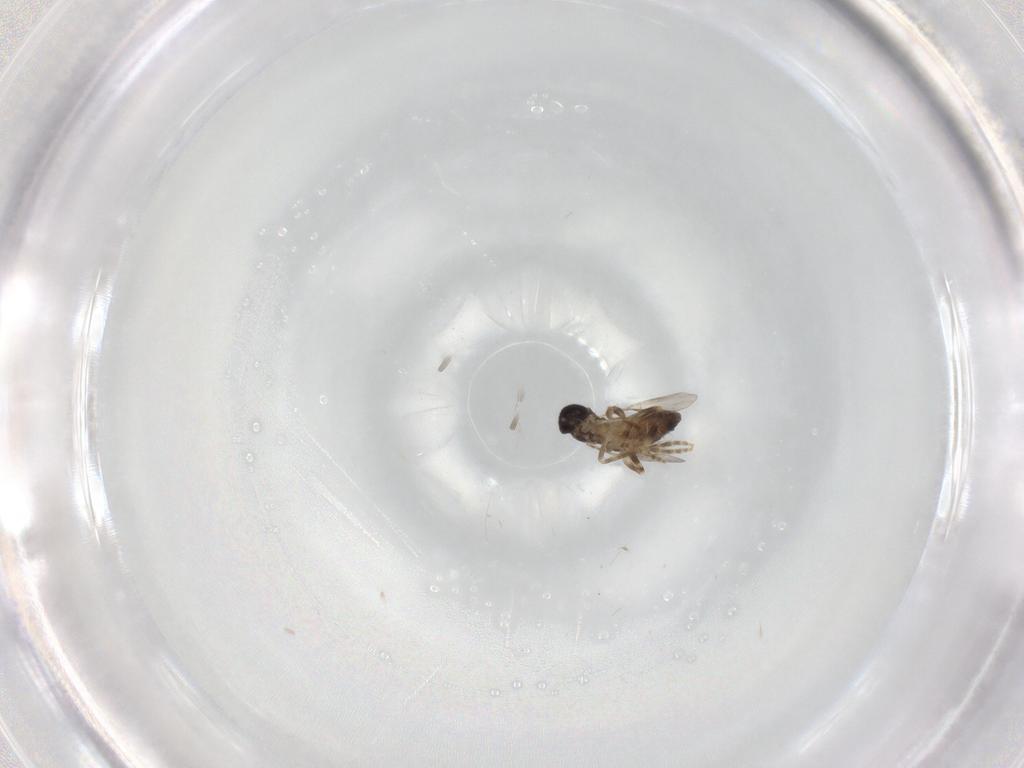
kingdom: Animalia
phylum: Arthropoda
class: Insecta
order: Diptera
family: Ceratopogonidae
